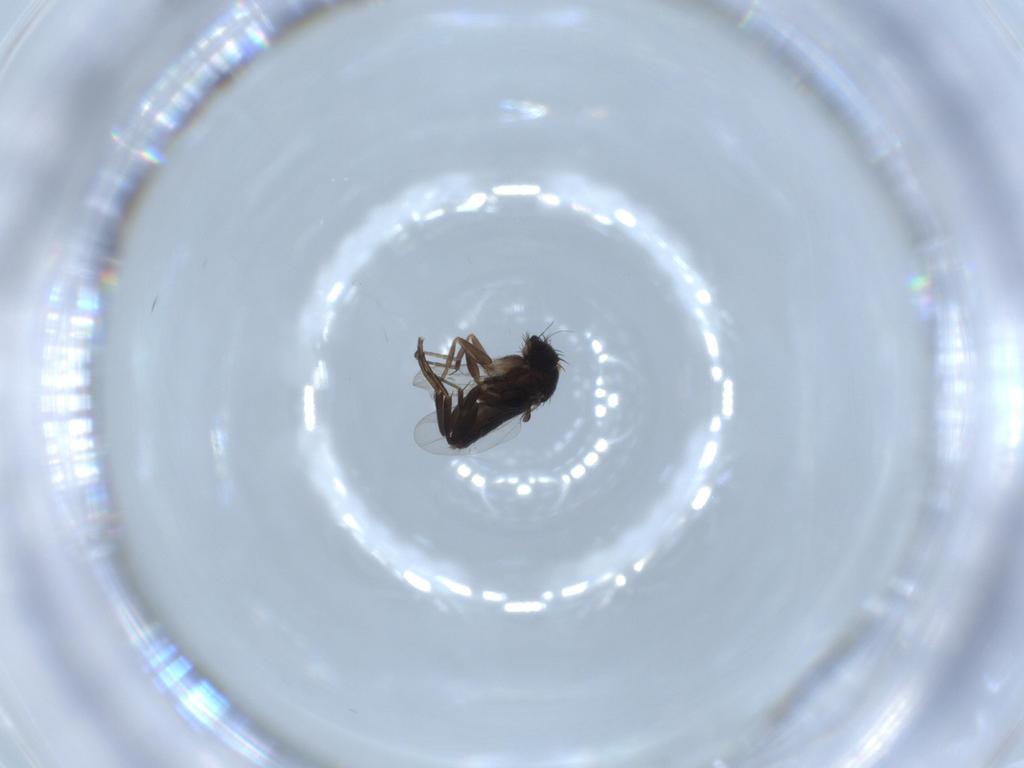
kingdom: Animalia
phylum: Arthropoda
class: Insecta
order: Diptera
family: Phoridae
